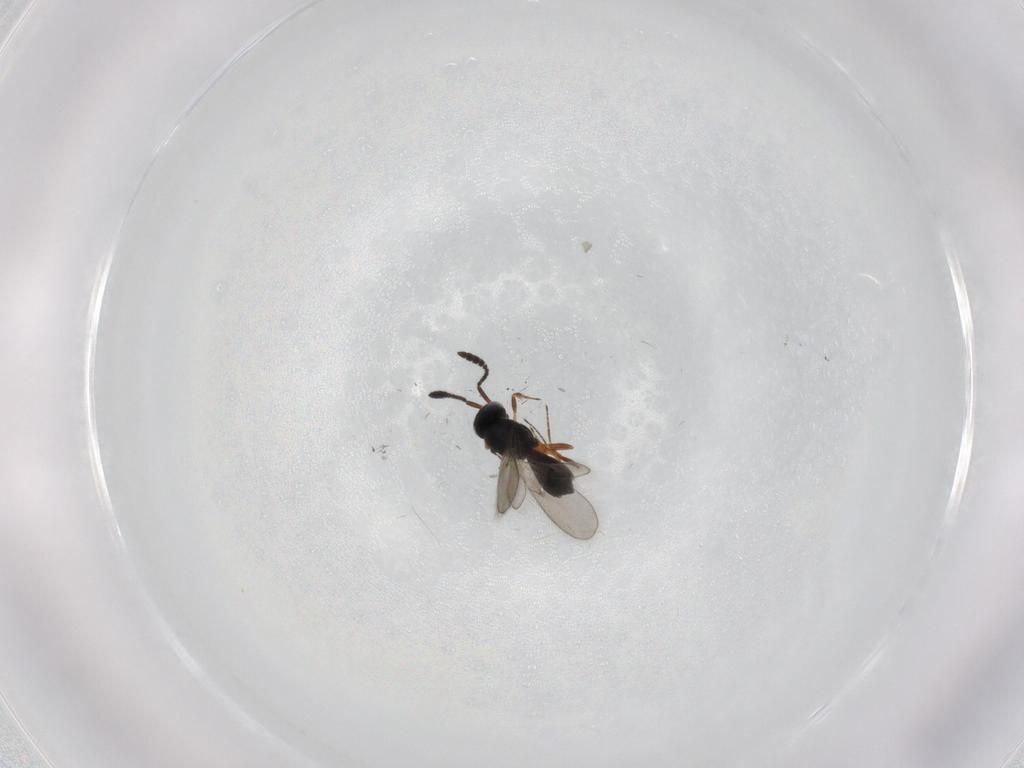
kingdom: Animalia
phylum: Arthropoda
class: Insecta
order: Hymenoptera
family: Scelionidae
